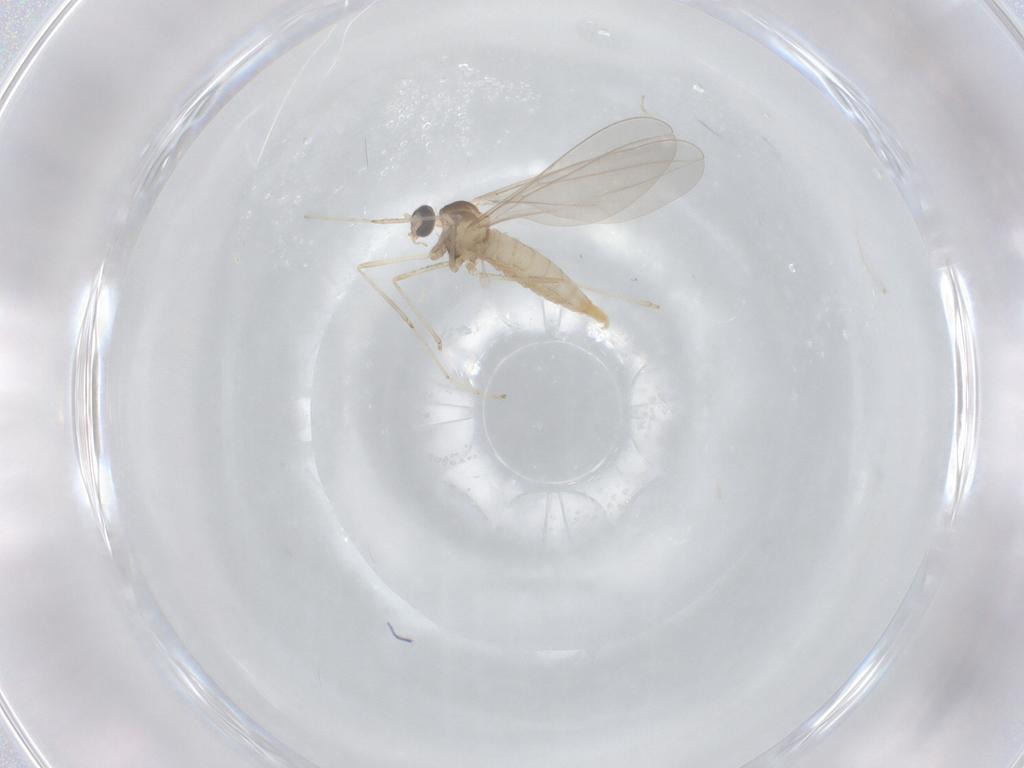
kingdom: Animalia
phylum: Arthropoda
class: Insecta
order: Diptera
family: Cecidomyiidae
